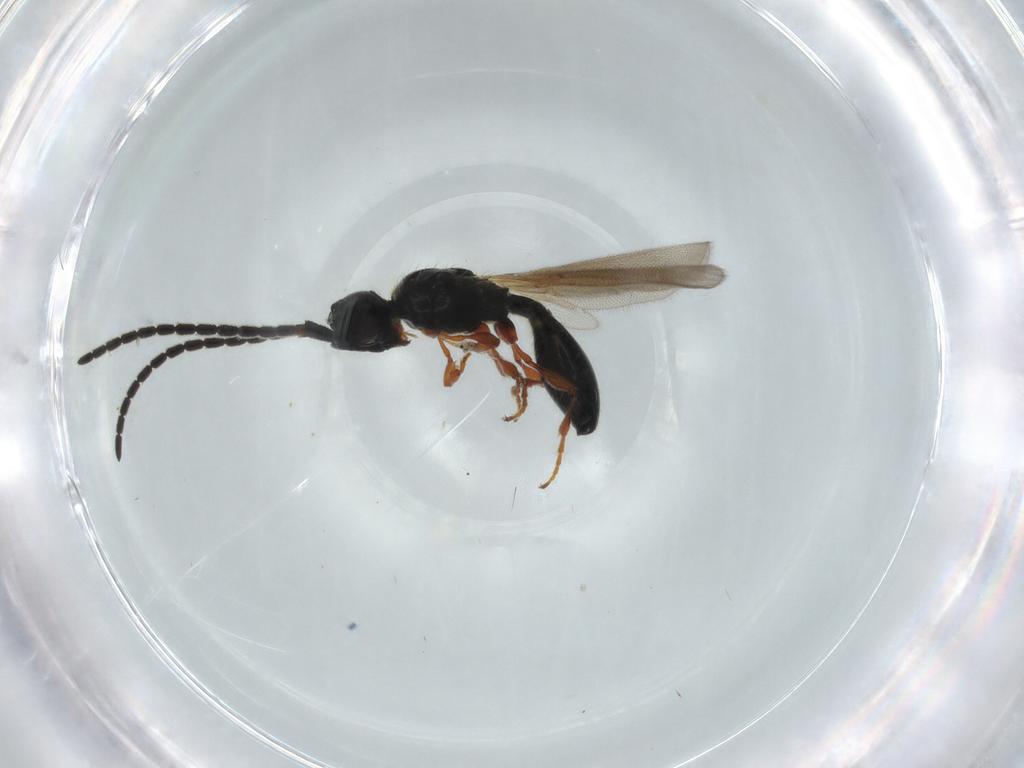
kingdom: Animalia
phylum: Arthropoda
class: Insecta
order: Hymenoptera
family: Diapriidae
